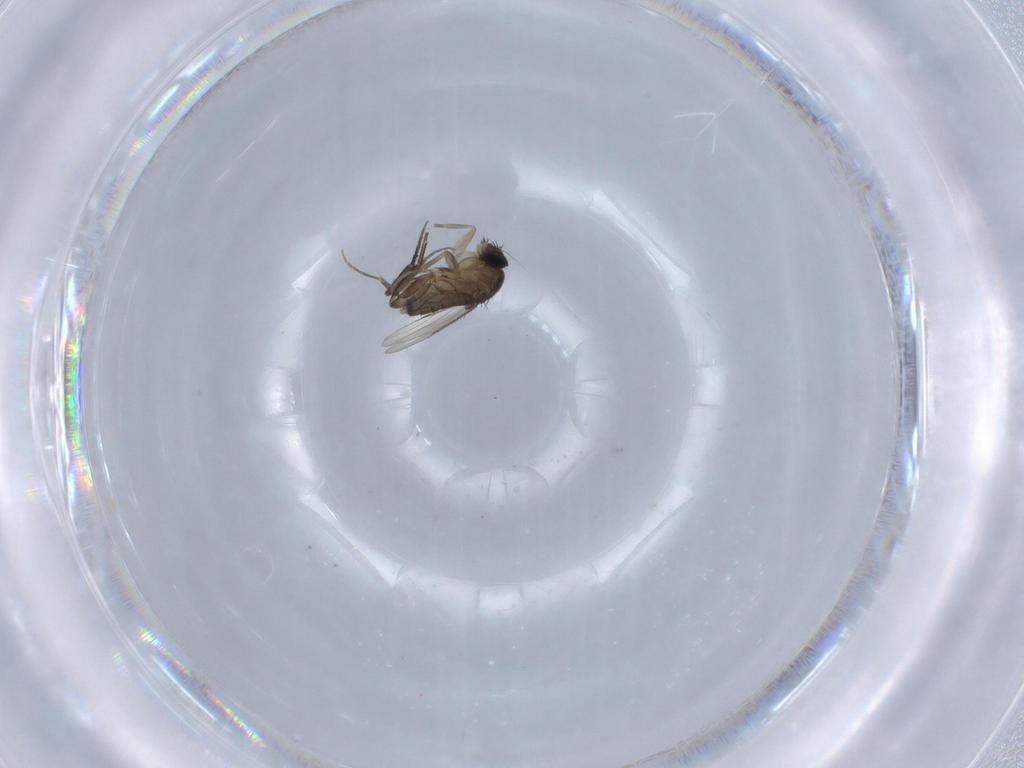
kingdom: Animalia
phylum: Arthropoda
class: Insecta
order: Diptera
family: Phoridae
